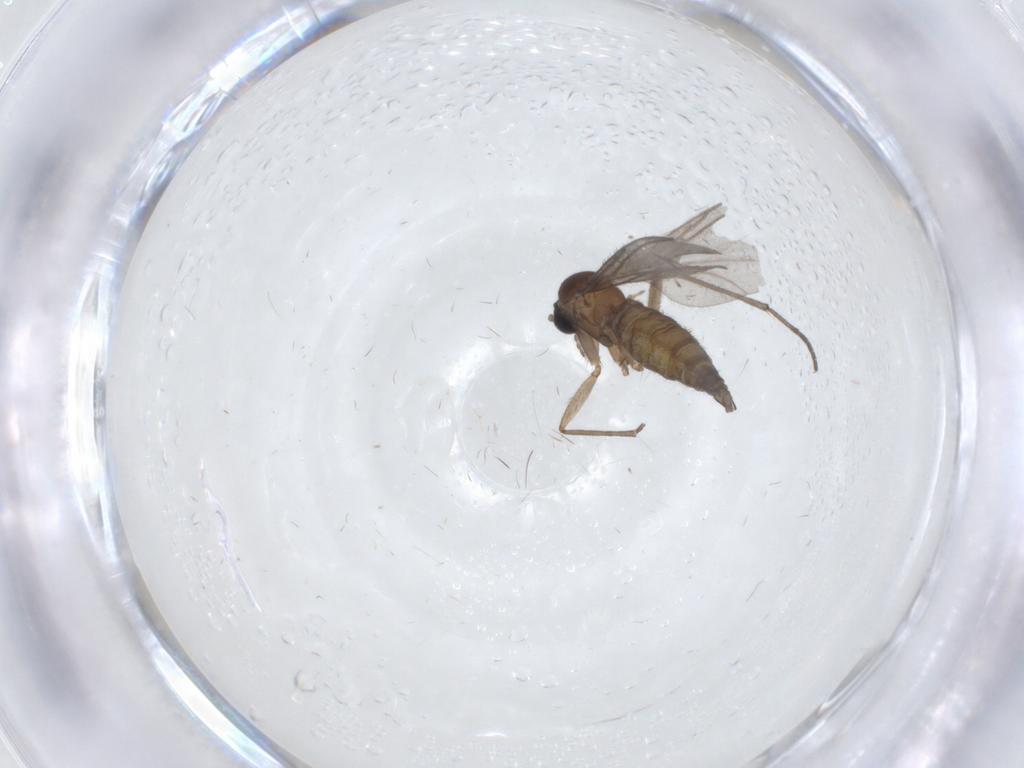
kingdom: Animalia
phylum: Arthropoda
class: Insecta
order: Diptera
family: Sciaridae
